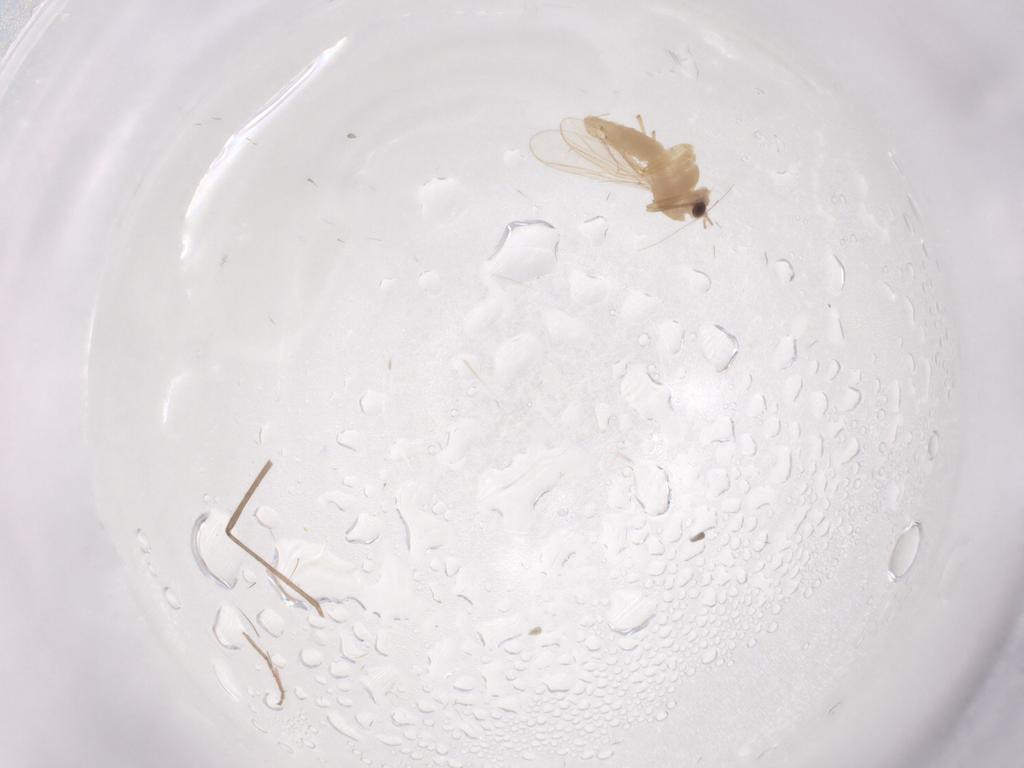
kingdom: Animalia
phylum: Arthropoda
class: Insecta
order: Diptera
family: Chironomidae
